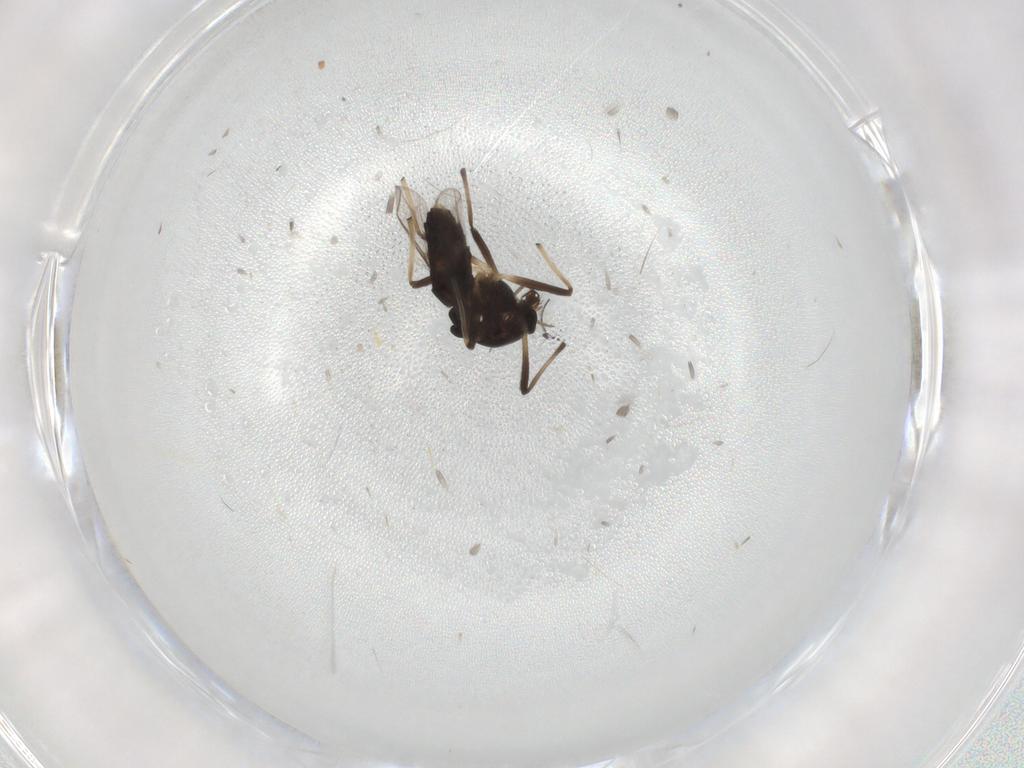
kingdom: Animalia
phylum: Arthropoda
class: Insecta
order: Diptera
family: Chironomidae
